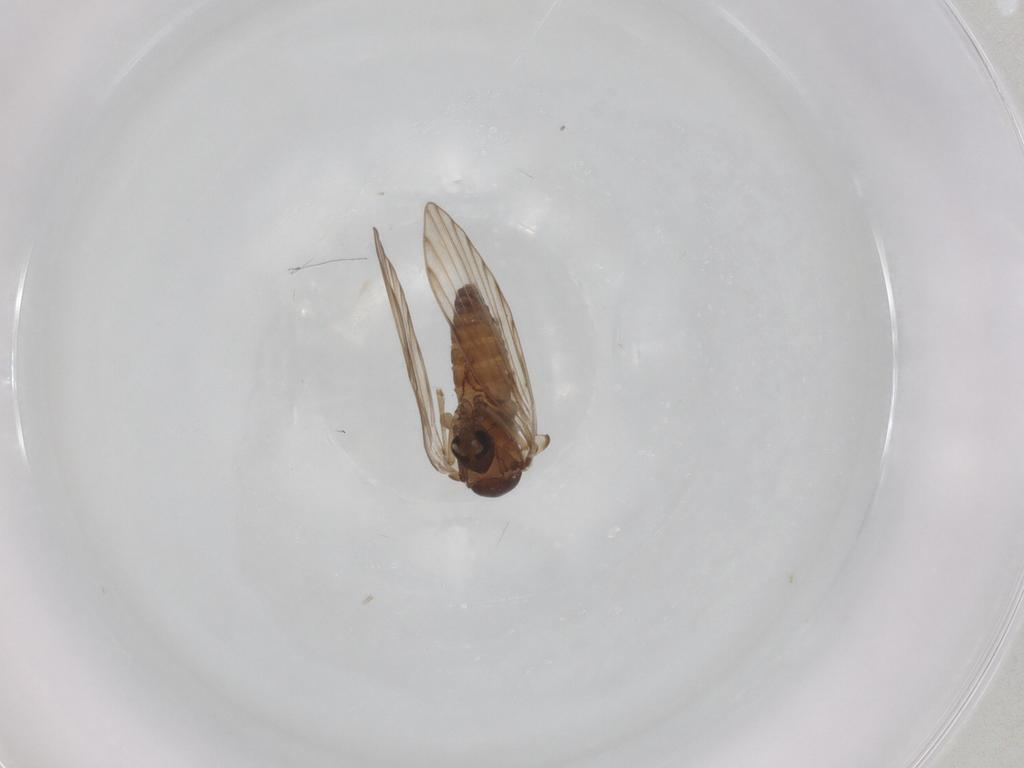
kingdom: Animalia
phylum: Arthropoda
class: Insecta
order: Diptera
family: Psychodidae
